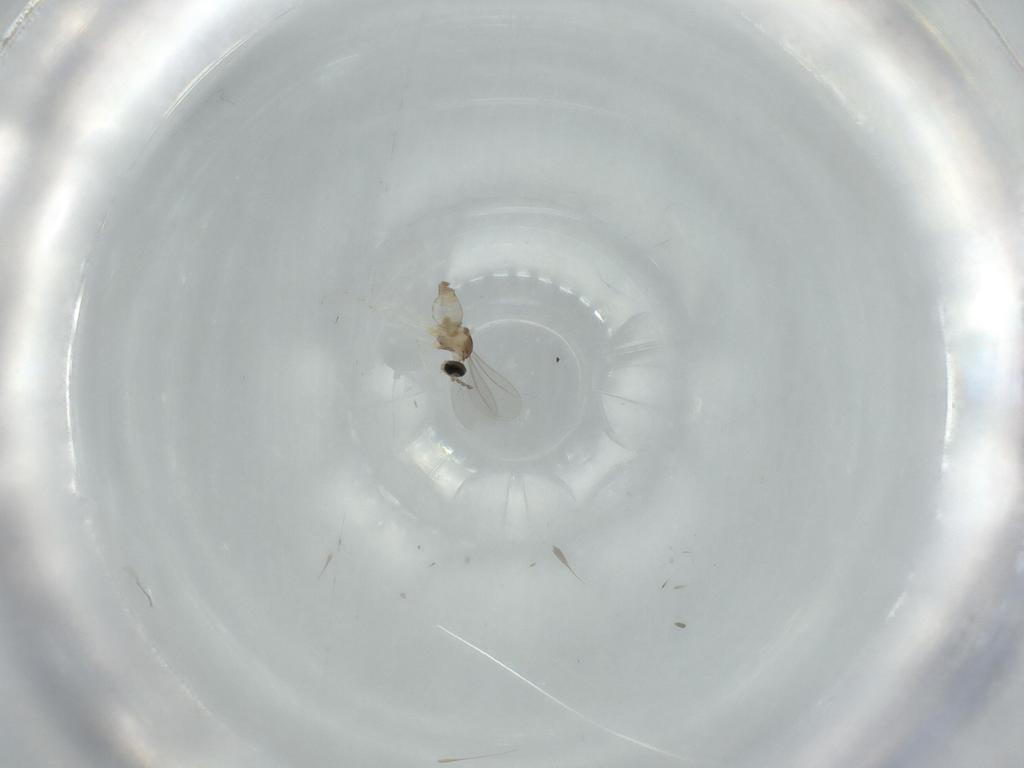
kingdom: Animalia
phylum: Arthropoda
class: Insecta
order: Diptera
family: Cecidomyiidae
